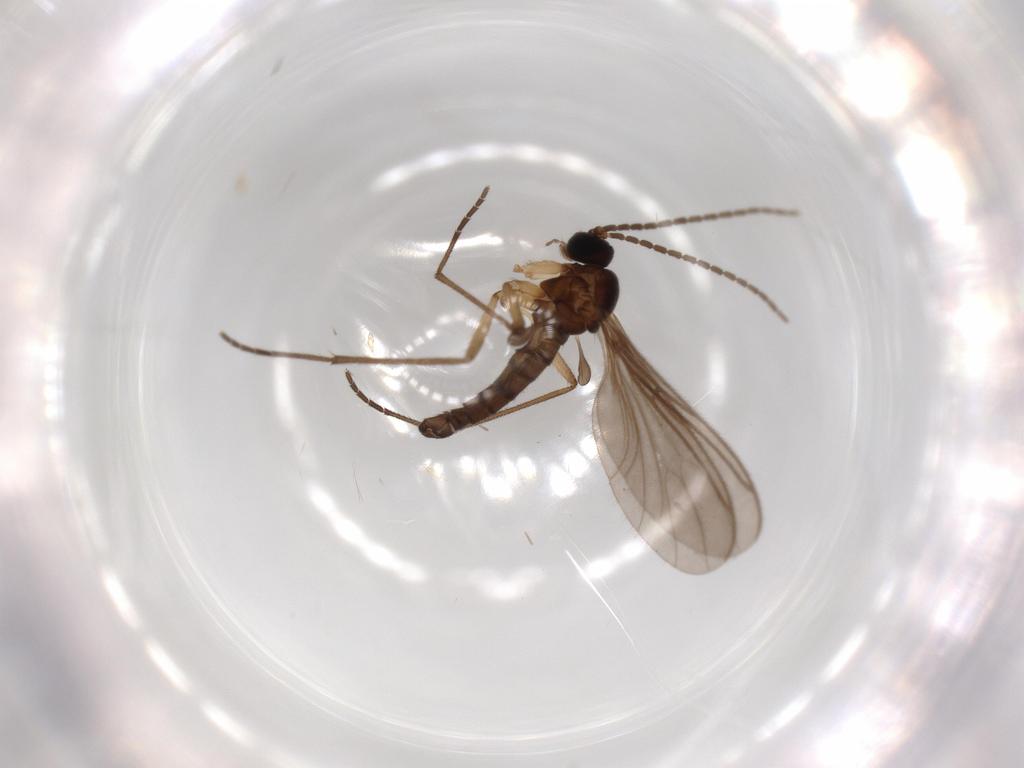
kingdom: Animalia
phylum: Arthropoda
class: Insecta
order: Diptera
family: Sciaridae
